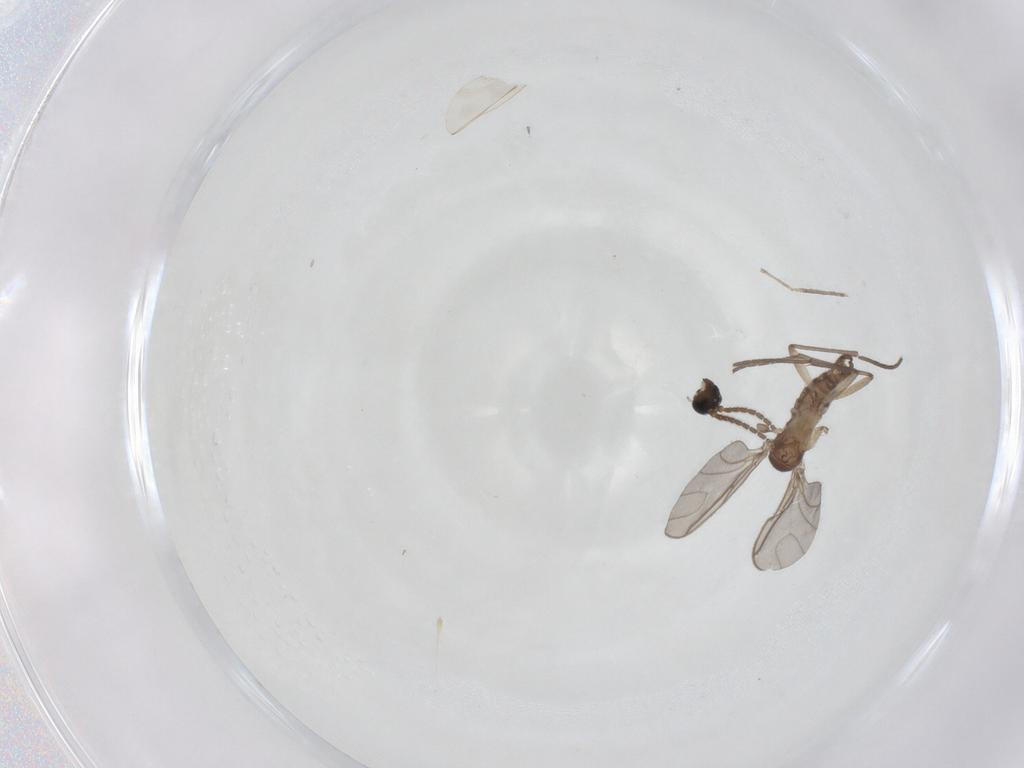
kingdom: Animalia
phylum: Arthropoda
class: Insecta
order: Diptera
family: Sciaridae
